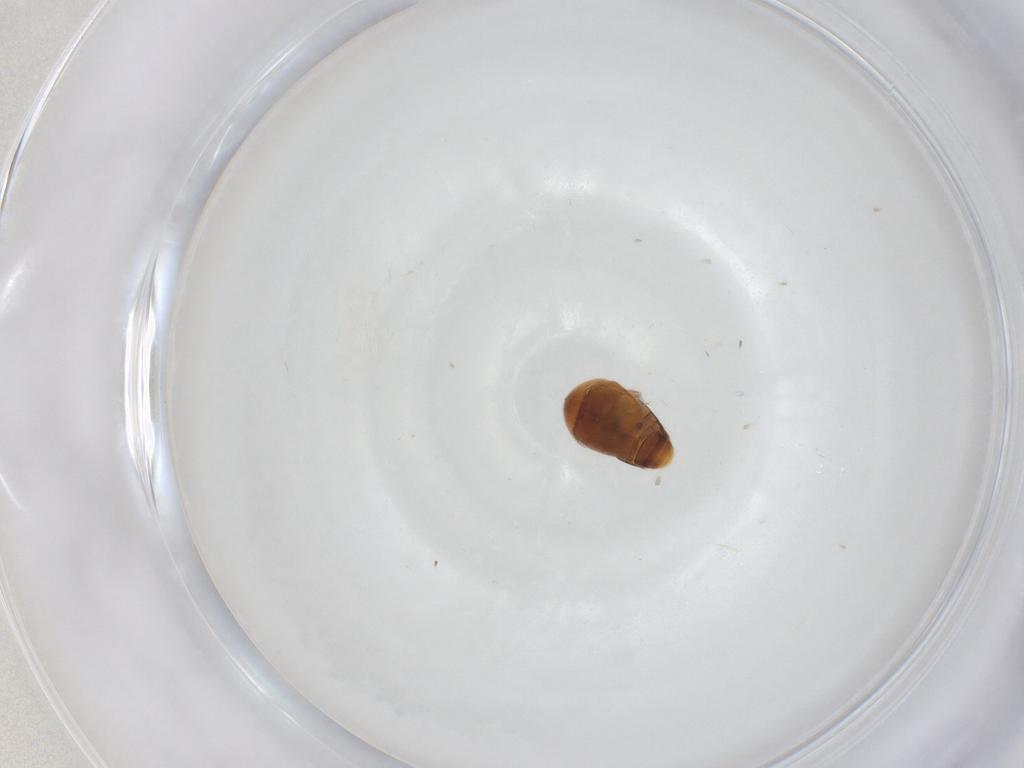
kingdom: Animalia
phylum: Arthropoda
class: Insecta
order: Coleoptera
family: Corylophidae
